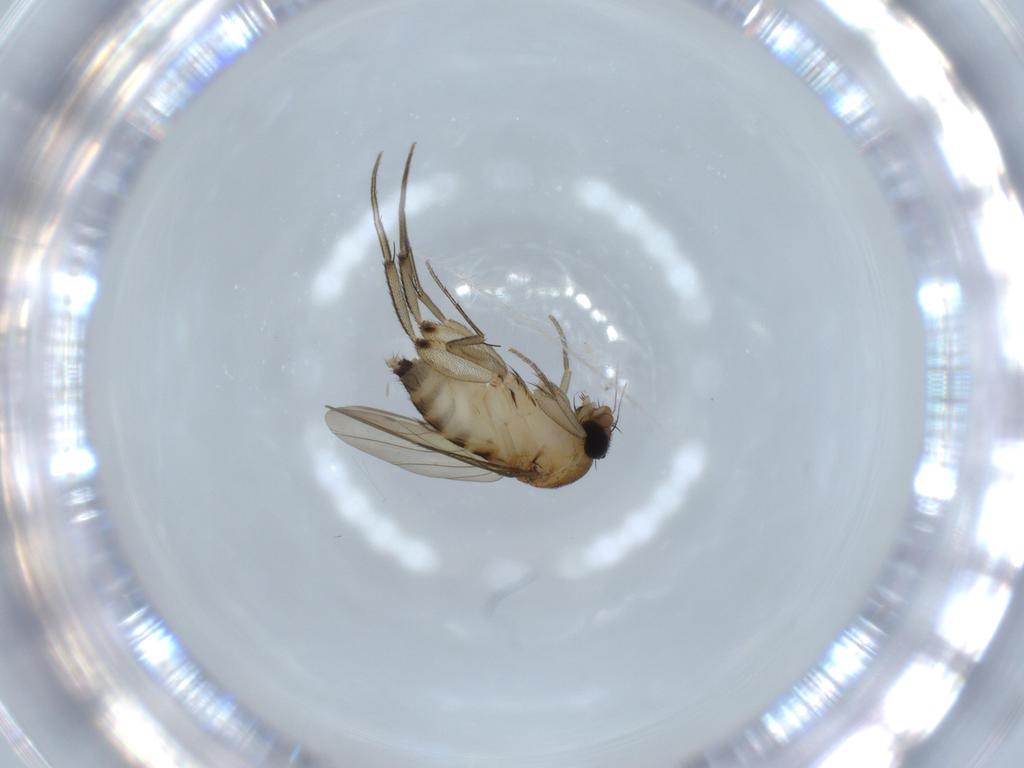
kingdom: Animalia
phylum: Arthropoda
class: Insecta
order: Diptera
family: Phoridae
